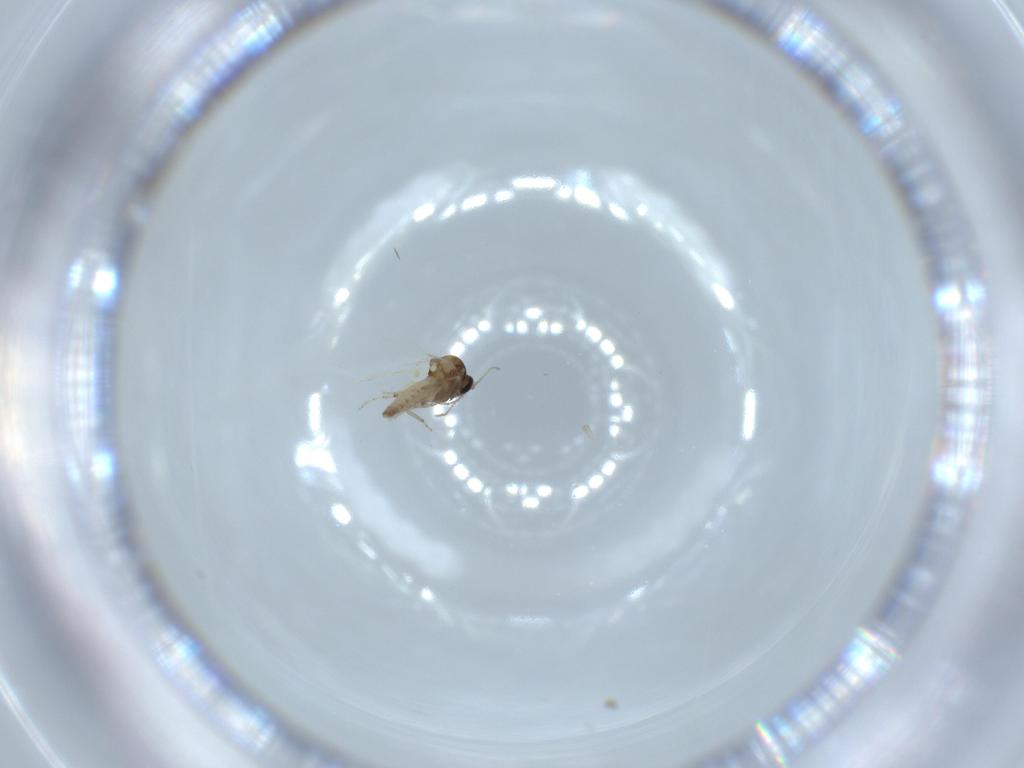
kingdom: Animalia
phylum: Arthropoda
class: Insecta
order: Diptera
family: Ceratopogonidae
